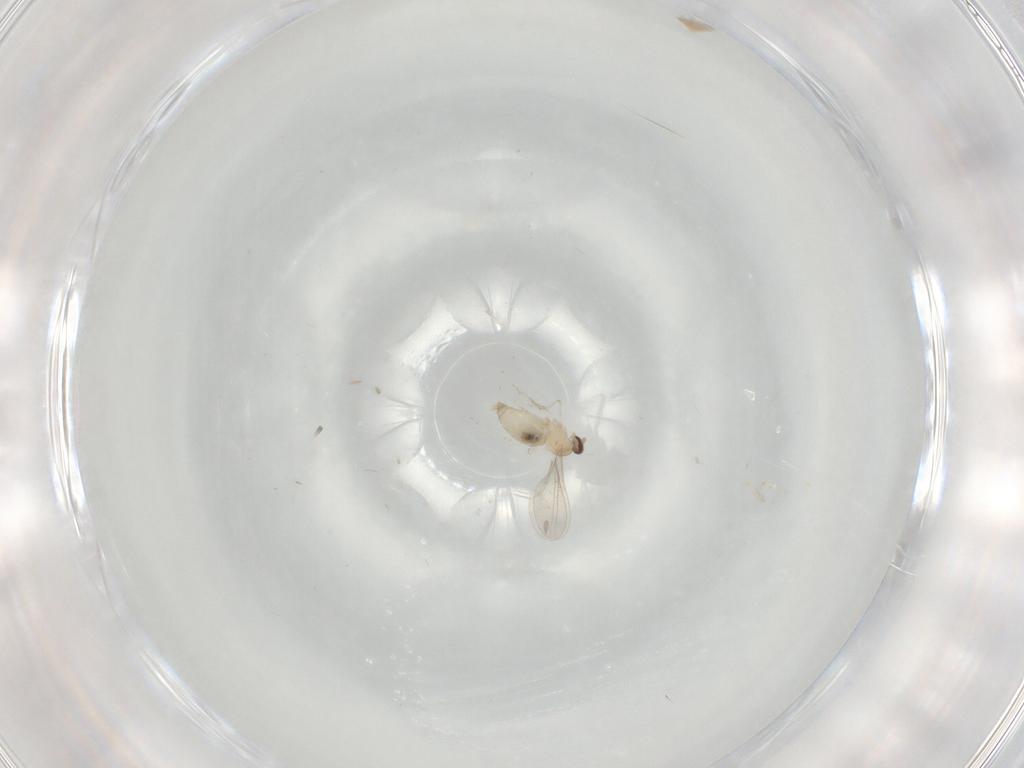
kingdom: Animalia
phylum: Arthropoda
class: Insecta
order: Diptera
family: Cecidomyiidae
